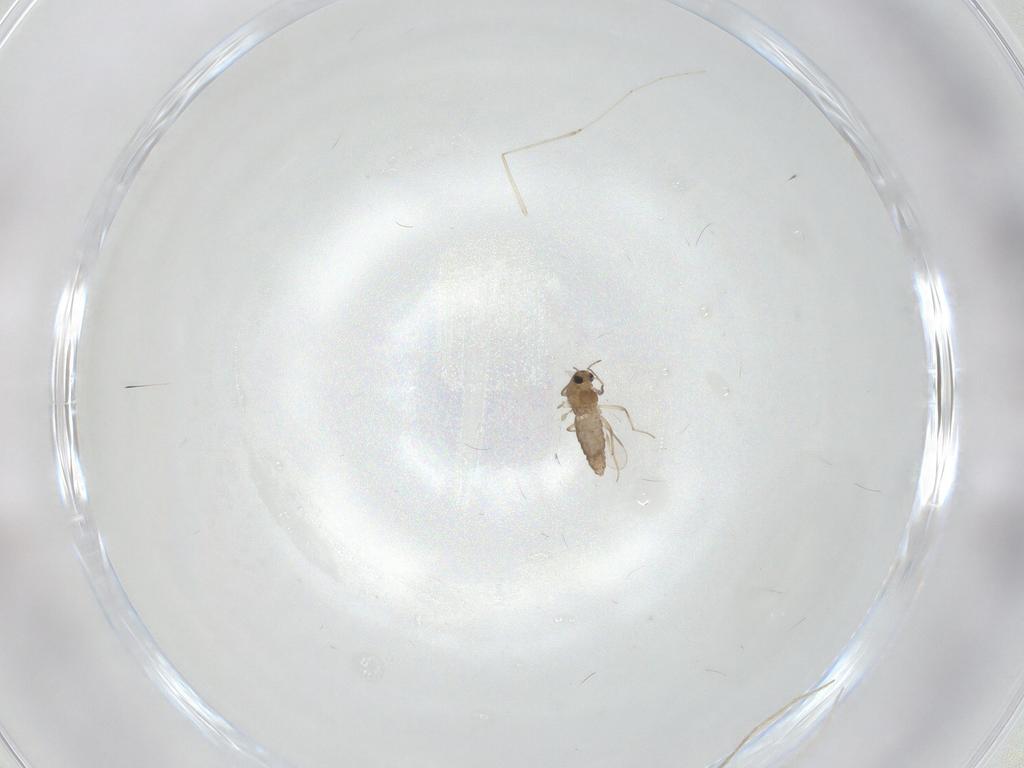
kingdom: Animalia
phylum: Arthropoda
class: Insecta
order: Diptera
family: Chironomidae
